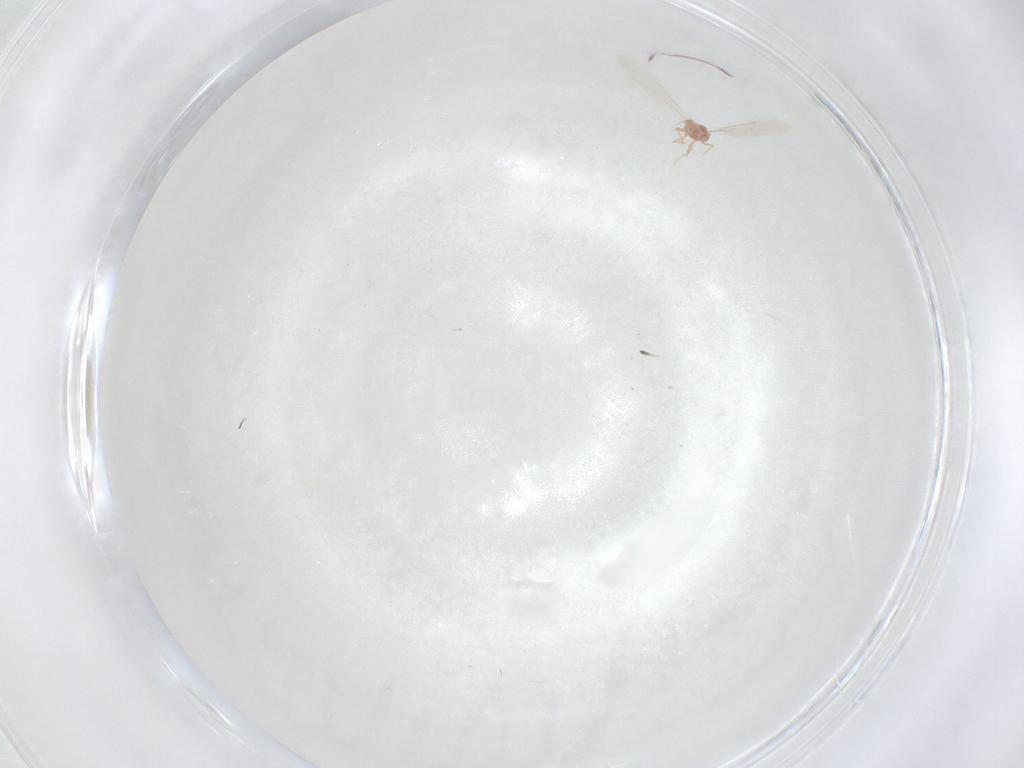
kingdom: Animalia
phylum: Arthropoda
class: Insecta
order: Hemiptera
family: Diaspididae
